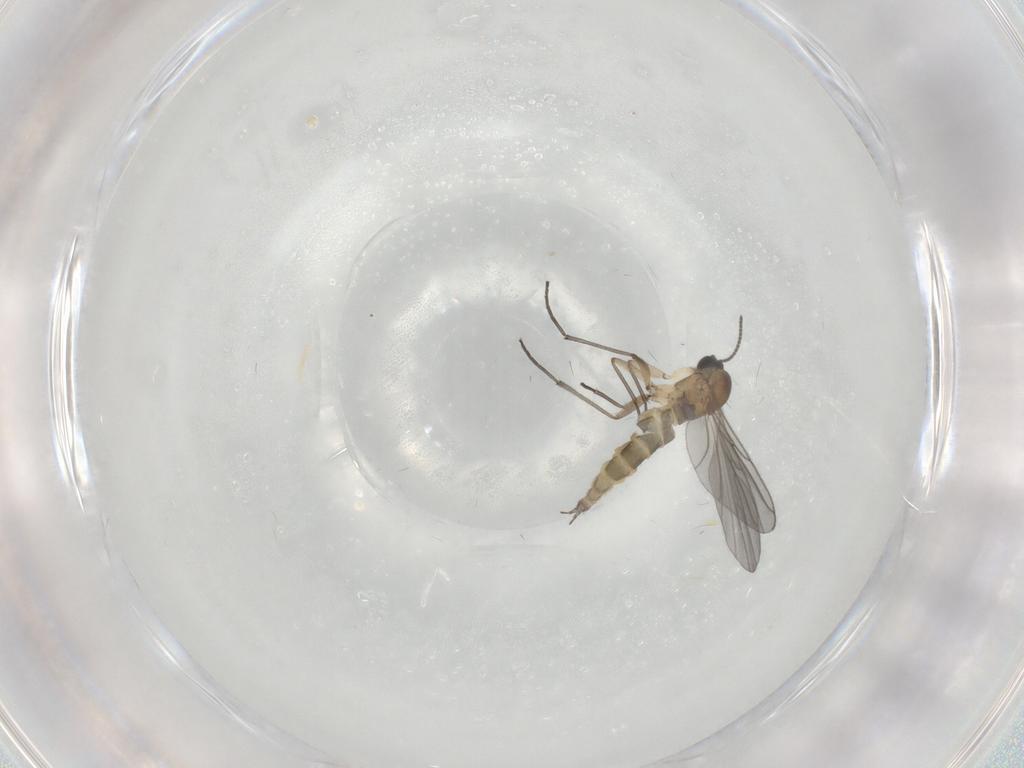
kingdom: Animalia
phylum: Arthropoda
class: Insecta
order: Diptera
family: Sciaridae
